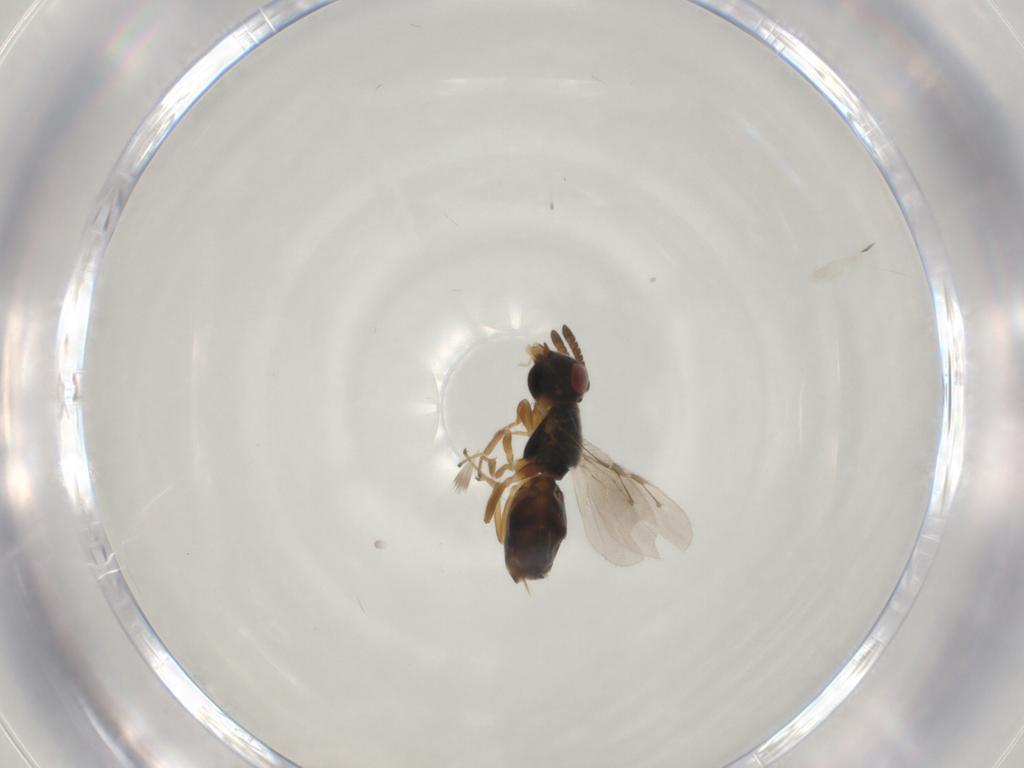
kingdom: Animalia
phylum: Arthropoda
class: Insecta
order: Hymenoptera
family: Pteromalidae
